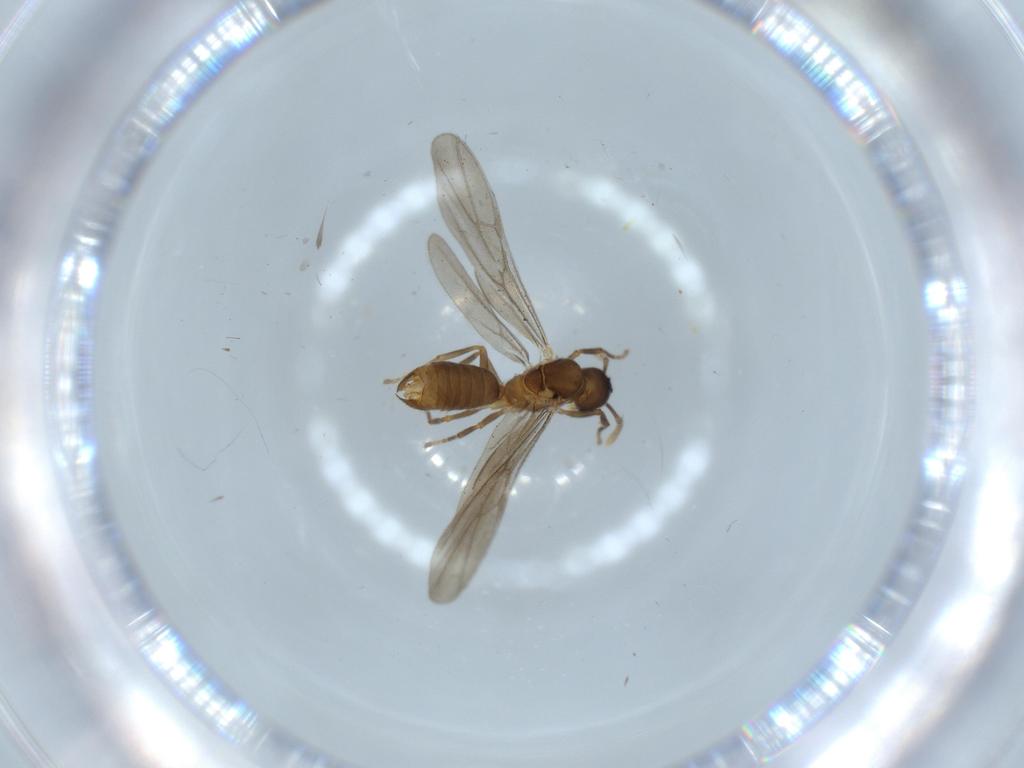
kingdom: Animalia
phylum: Arthropoda
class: Insecta
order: Hymenoptera
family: Formicidae
